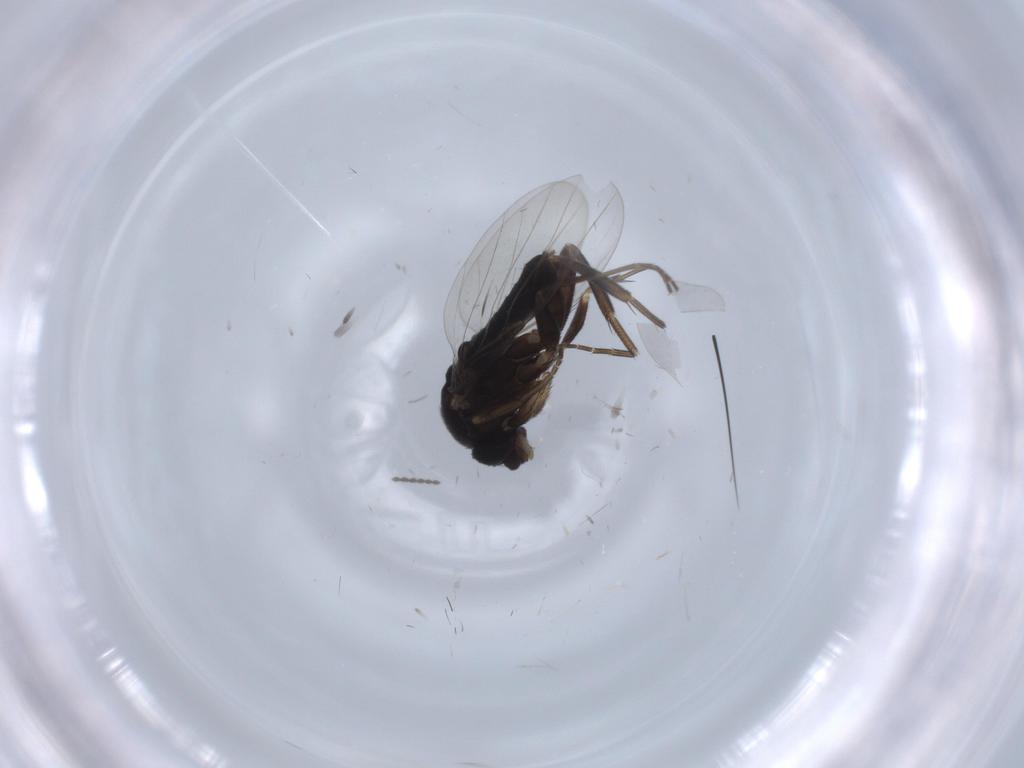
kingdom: Animalia
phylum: Arthropoda
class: Insecta
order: Diptera
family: Phoridae
